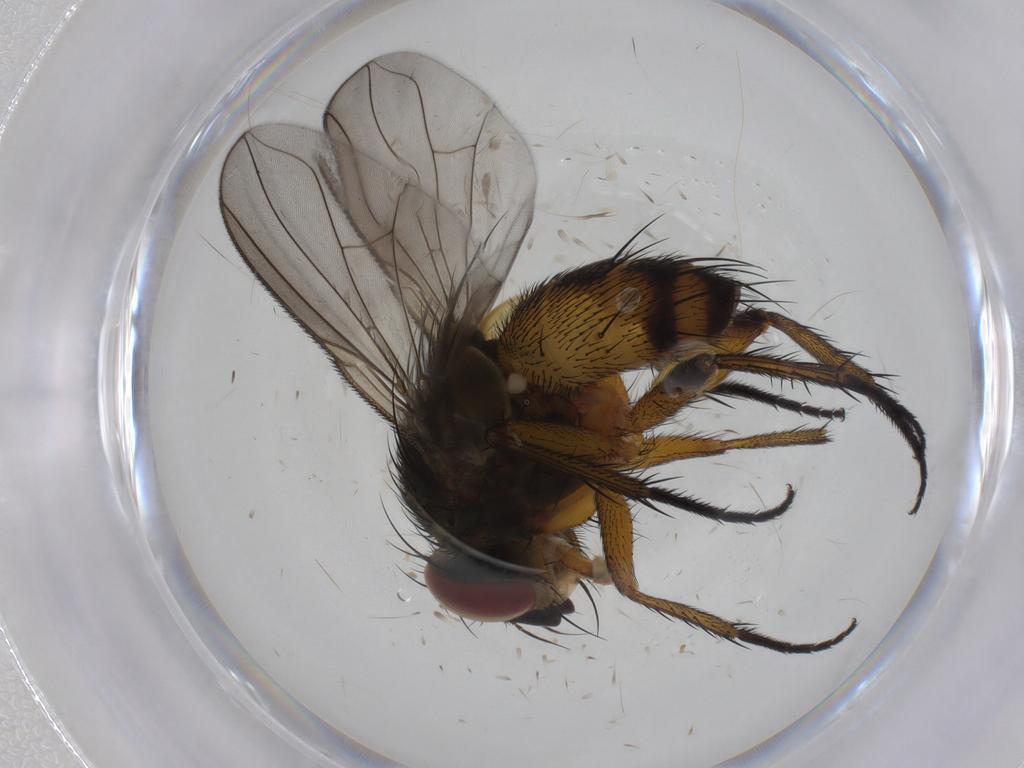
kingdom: Animalia
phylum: Arthropoda
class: Insecta
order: Diptera
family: Tachinidae
